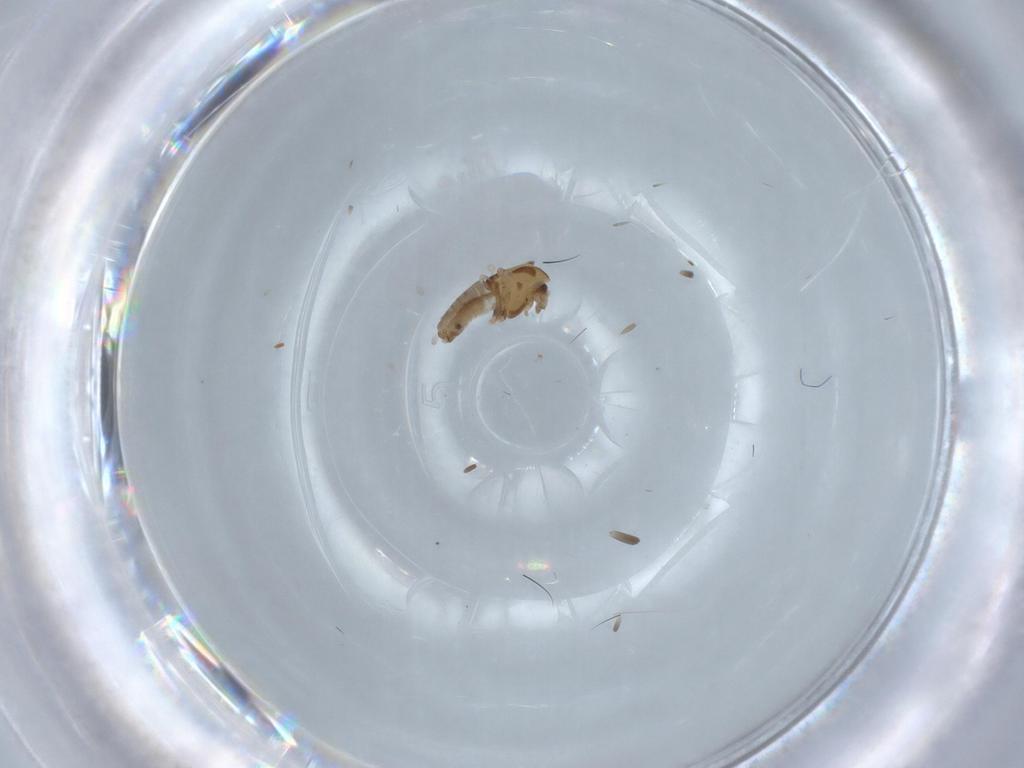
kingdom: Animalia
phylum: Arthropoda
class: Insecta
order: Diptera
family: Chironomidae
